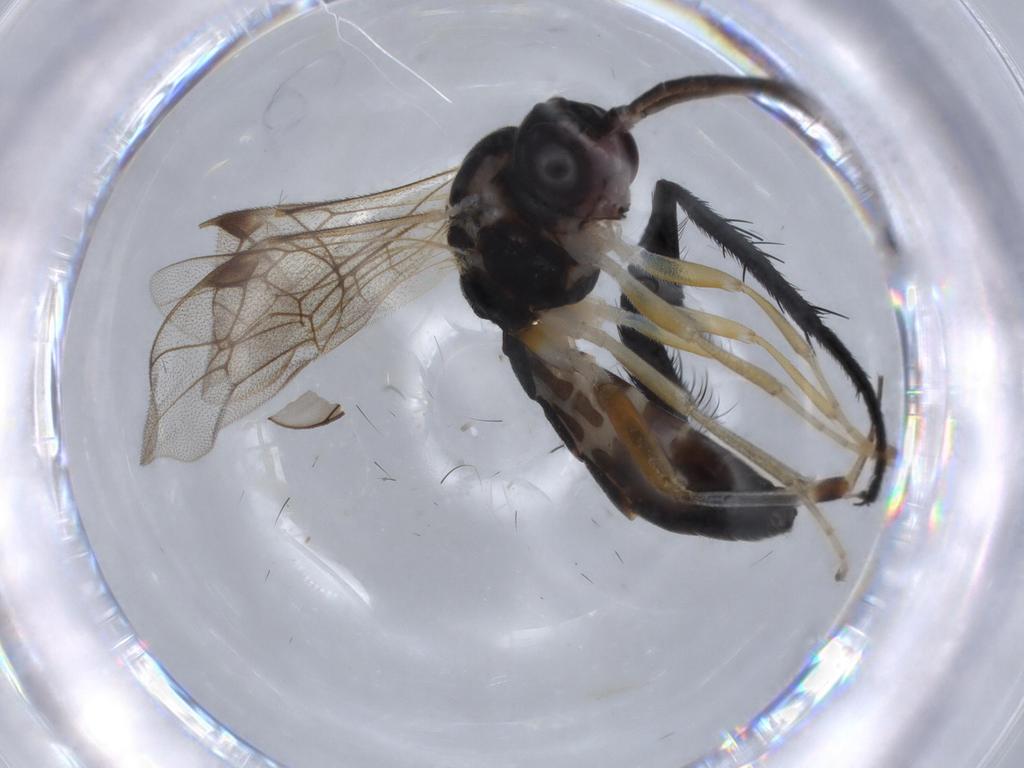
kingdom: Animalia
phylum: Arthropoda
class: Insecta
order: Hymenoptera
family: Torymidae
